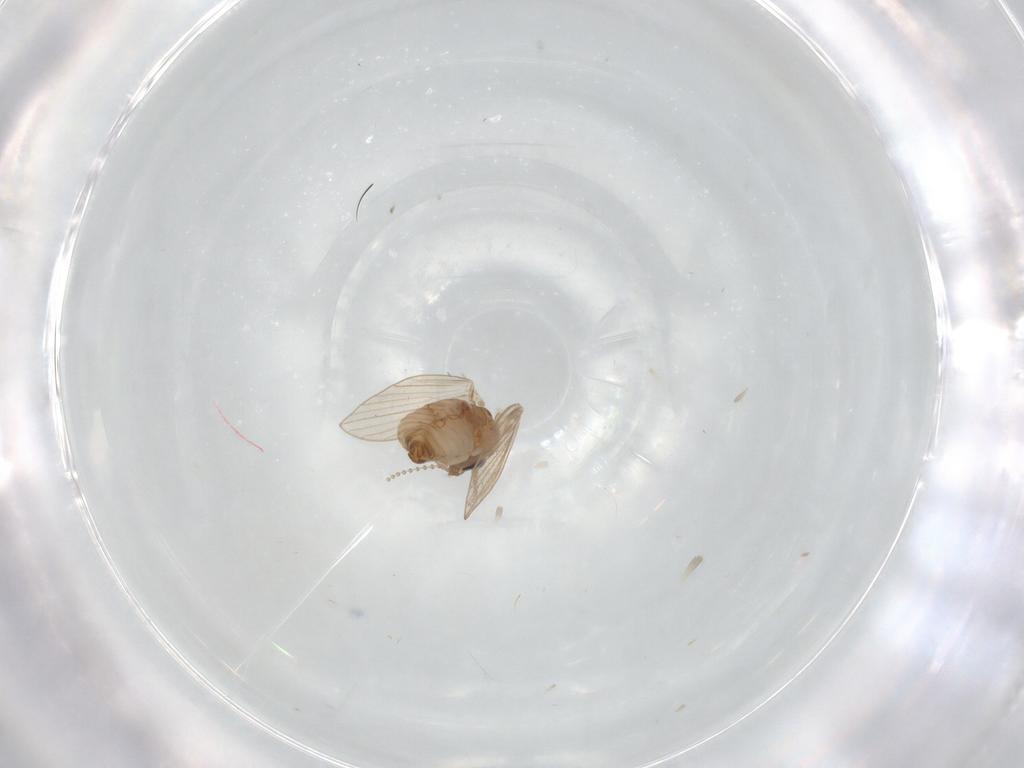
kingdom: Animalia
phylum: Arthropoda
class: Insecta
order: Diptera
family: Psychodidae
